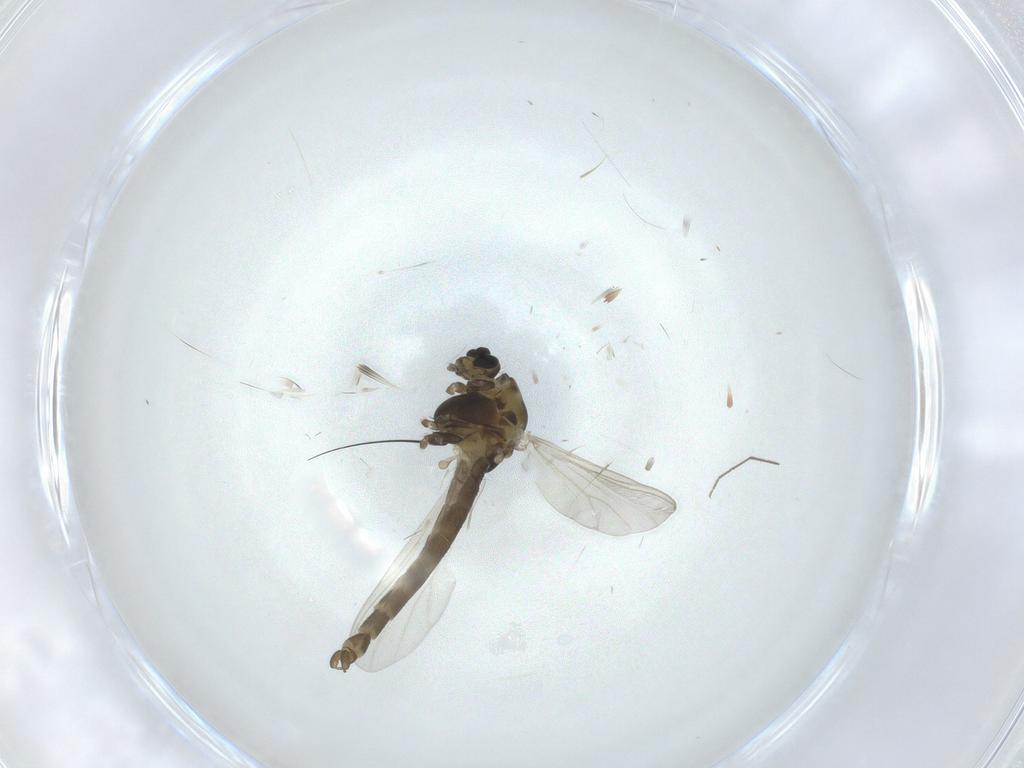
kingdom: Animalia
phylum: Arthropoda
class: Insecta
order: Diptera
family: Chironomidae
